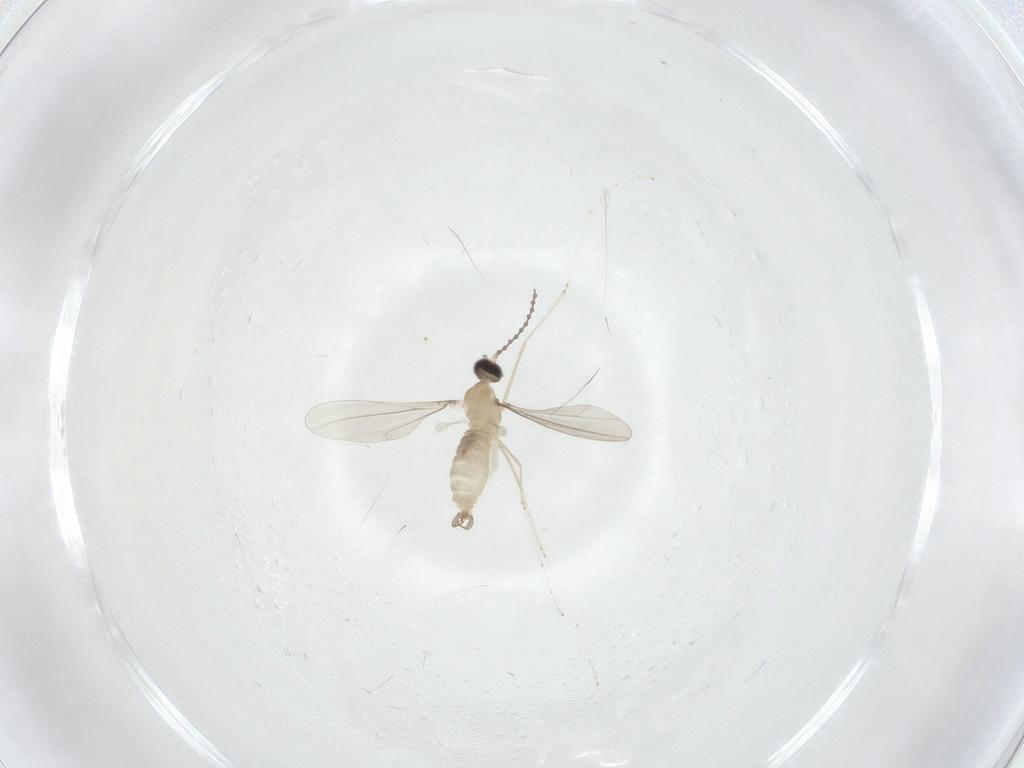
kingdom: Animalia
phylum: Arthropoda
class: Insecta
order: Diptera
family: Cecidomyiidae
